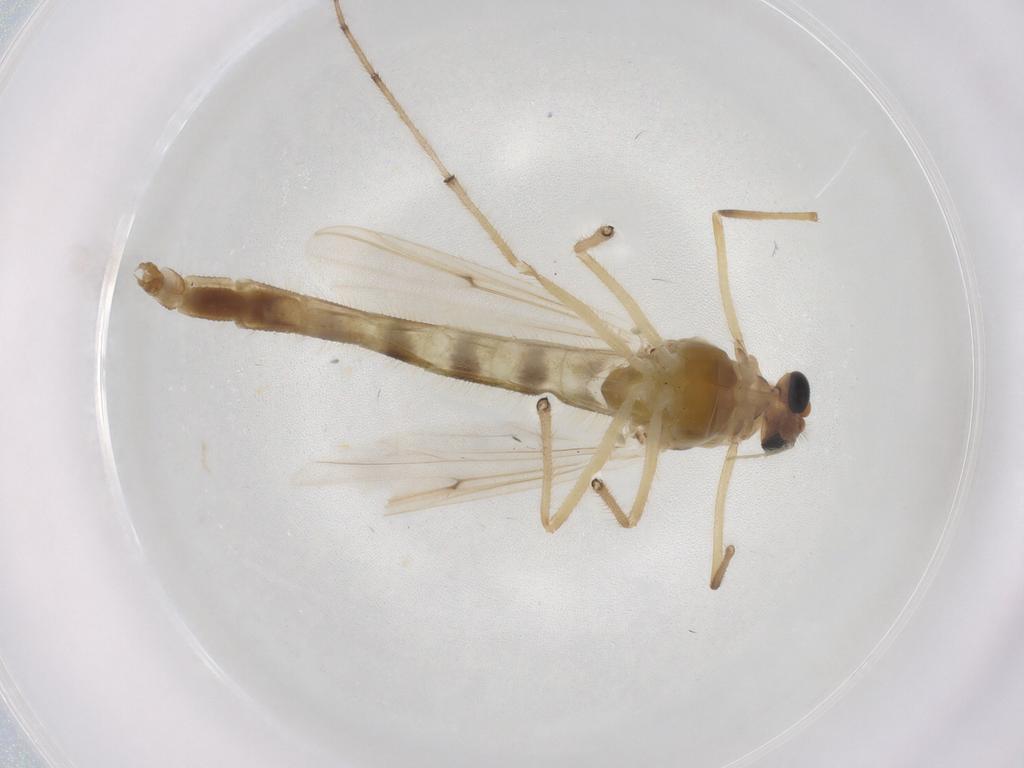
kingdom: Animalia
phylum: Arthropoda
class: Insecta
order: Diptera
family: Chironomidae
